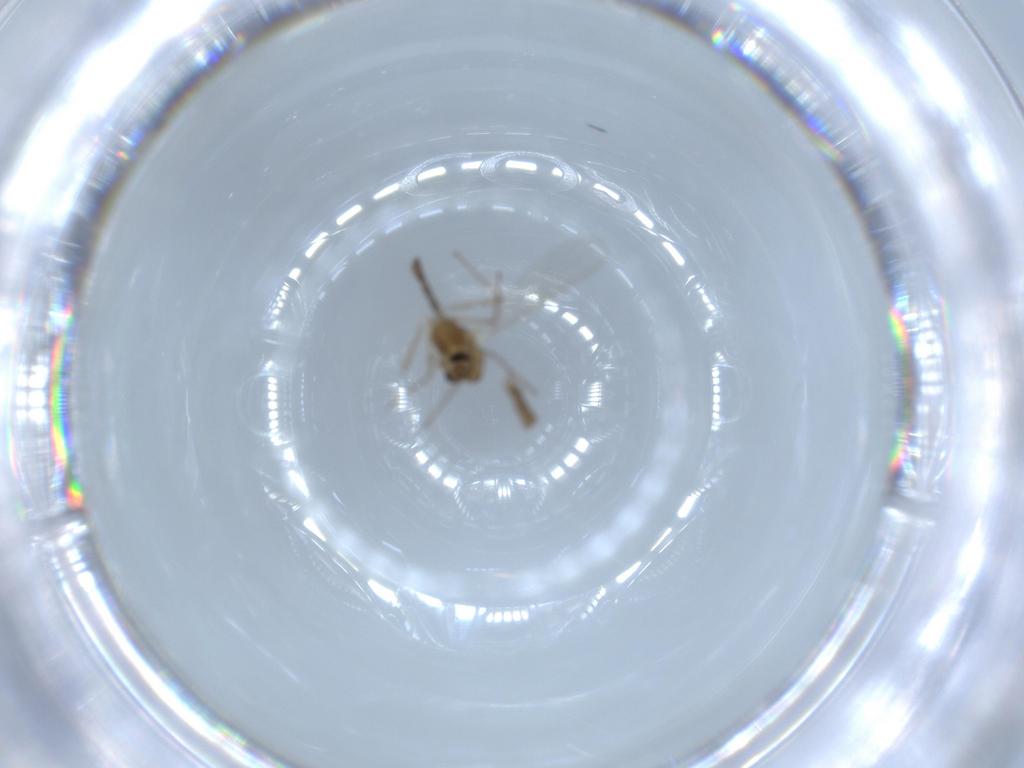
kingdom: Animalia
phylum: Arthropoda
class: Insecta
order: Diptera
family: Chironomidae
